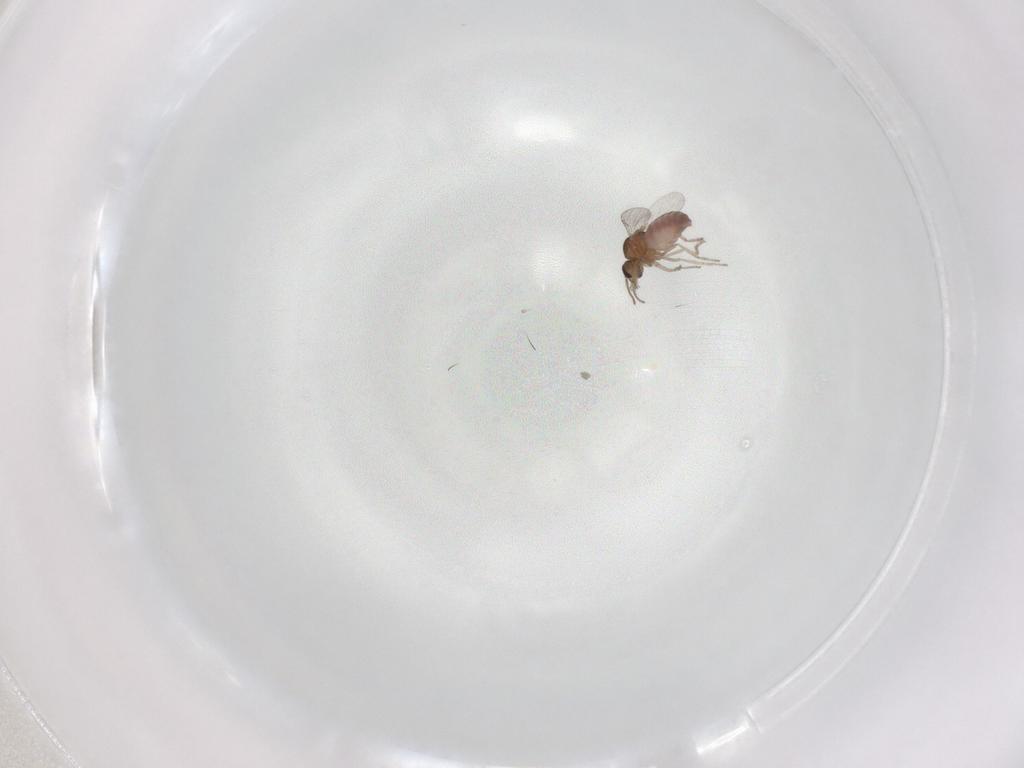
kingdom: Animalia
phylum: Arthropoda
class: Insecta
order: Diptera
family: Ceratopogonidae
